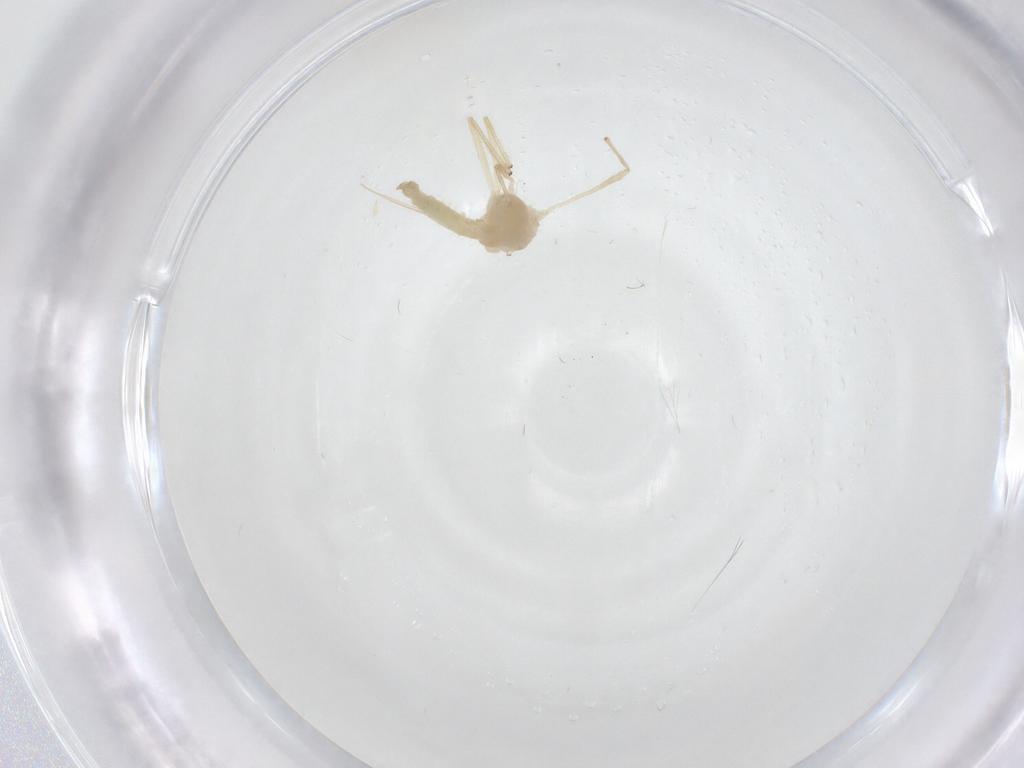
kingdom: Animalia
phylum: Arthropoda
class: Insecta
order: Diptera
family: Chironomidae
